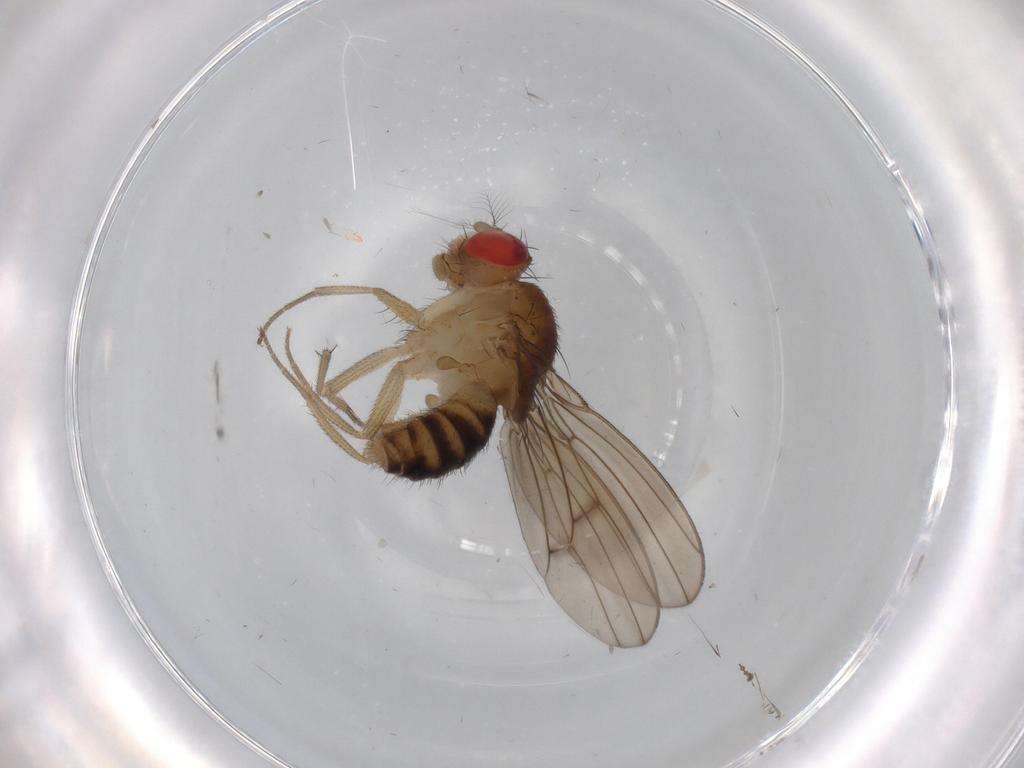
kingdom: Animalia
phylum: Arthropoda
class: Insecta
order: Diptera
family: Drosophilidae
